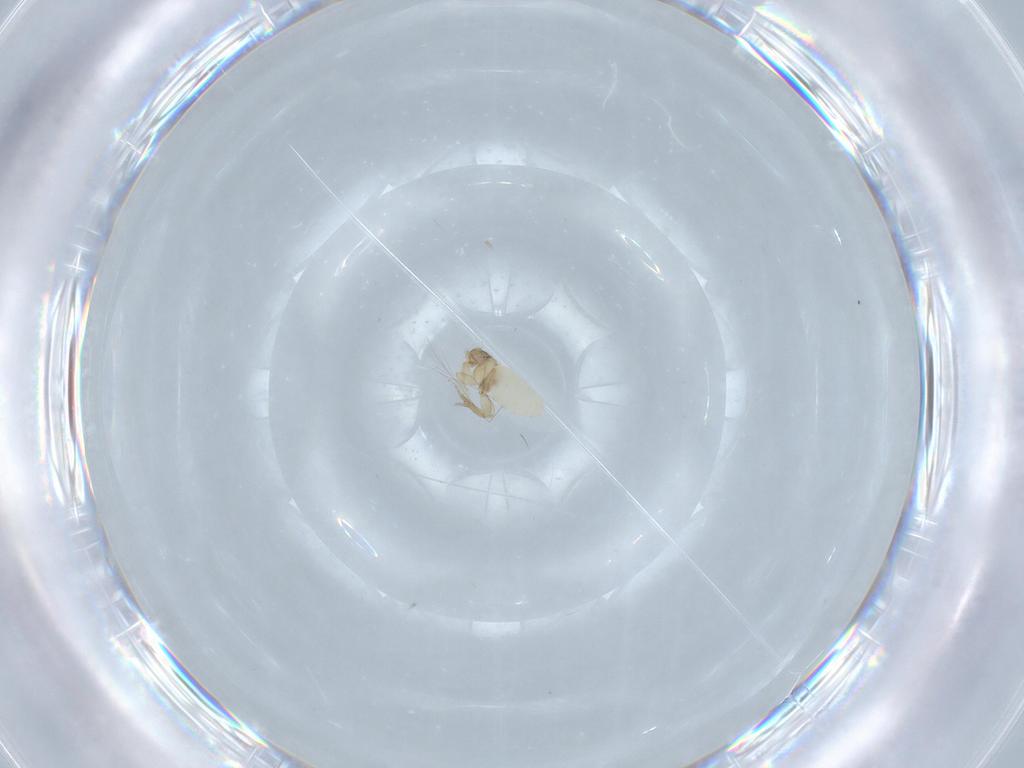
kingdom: Animalia
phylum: Arthropoda
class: Insecta
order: Diptera
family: Phoridae
